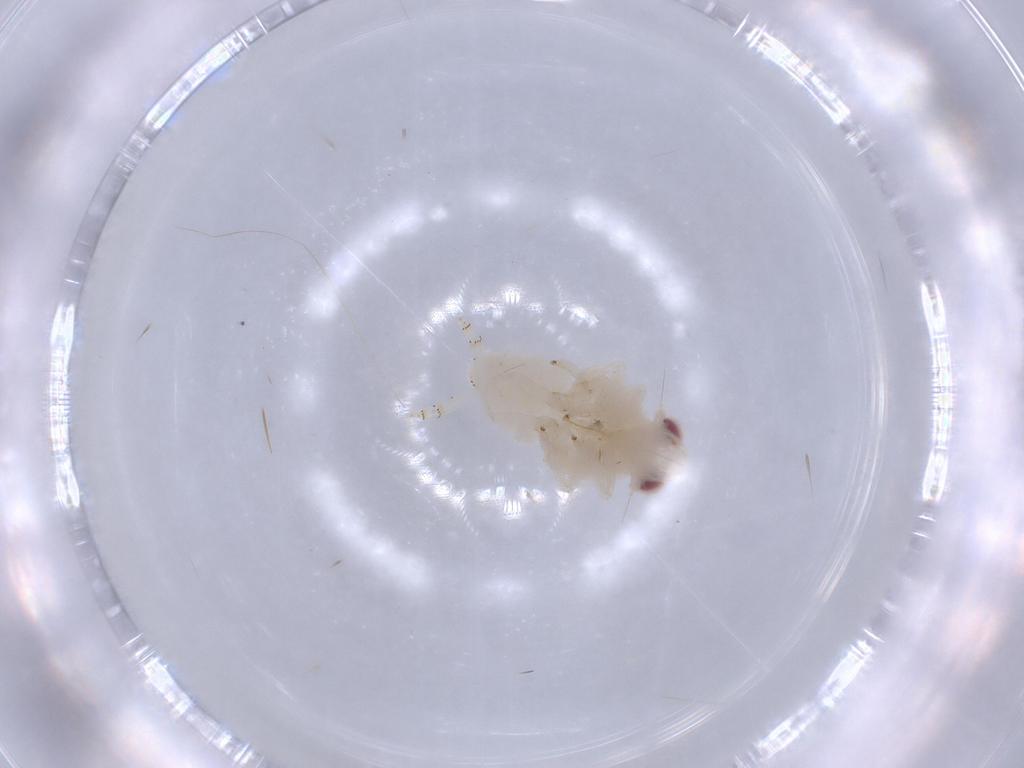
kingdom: Animalia
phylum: Arthropoda
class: Insecta
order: Hemiptera
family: Nogodinidae
